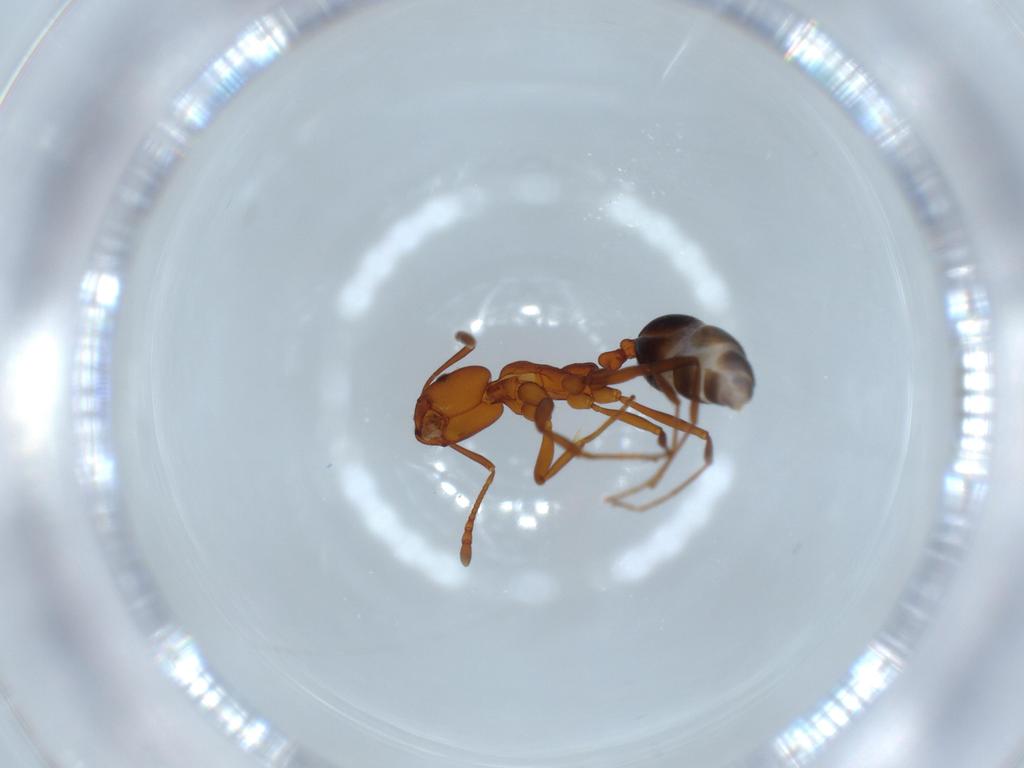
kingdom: Animalia
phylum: Arthropoda
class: Insecta
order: Hymenoptera
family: Formicidae
